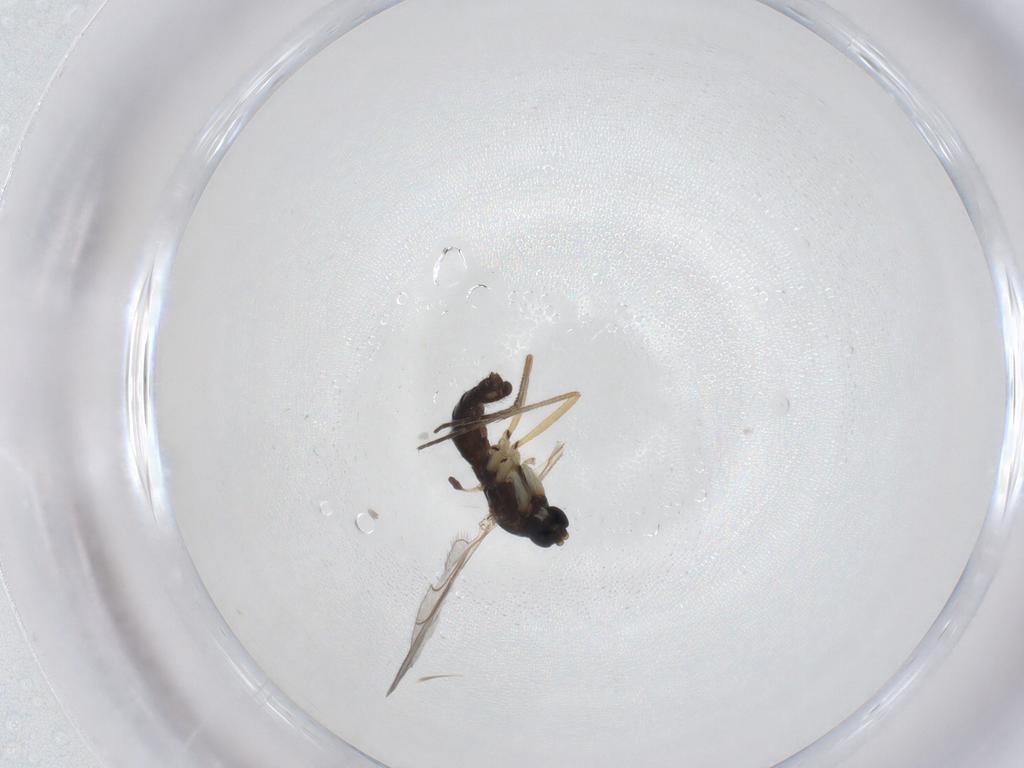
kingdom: Animalia
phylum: Arthropoda
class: Insecta
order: Diptera
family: Sciaridae
